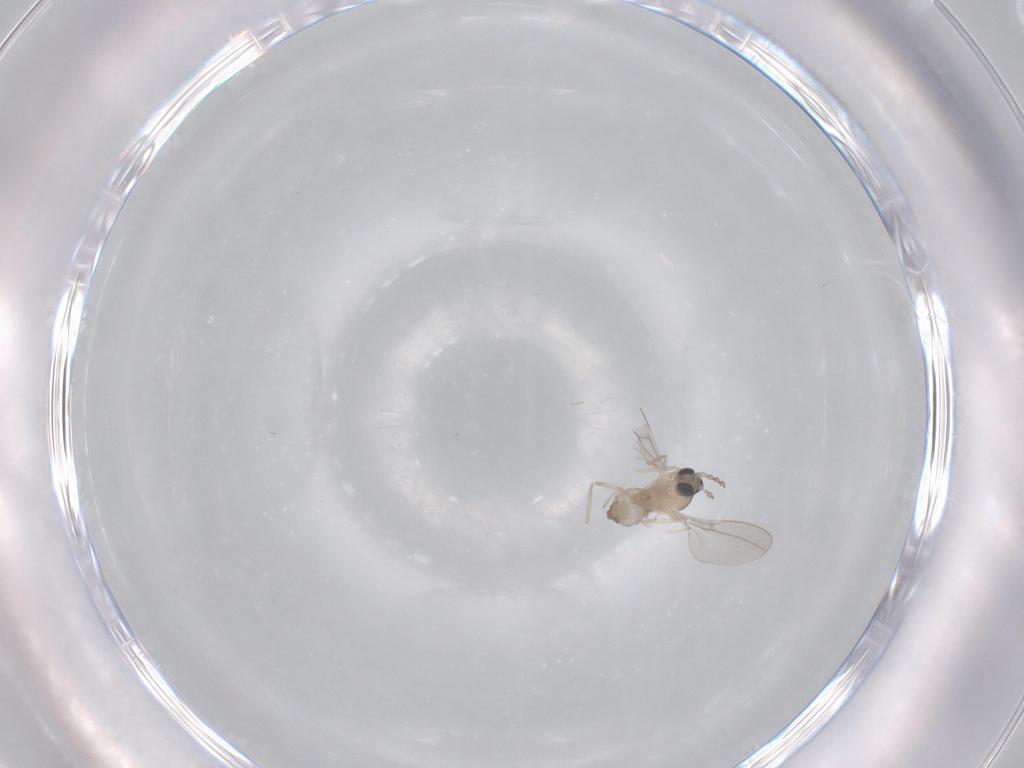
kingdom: Animalia
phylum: Arthropoda
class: Insecta
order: Diptera
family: Cecidomyiidae
